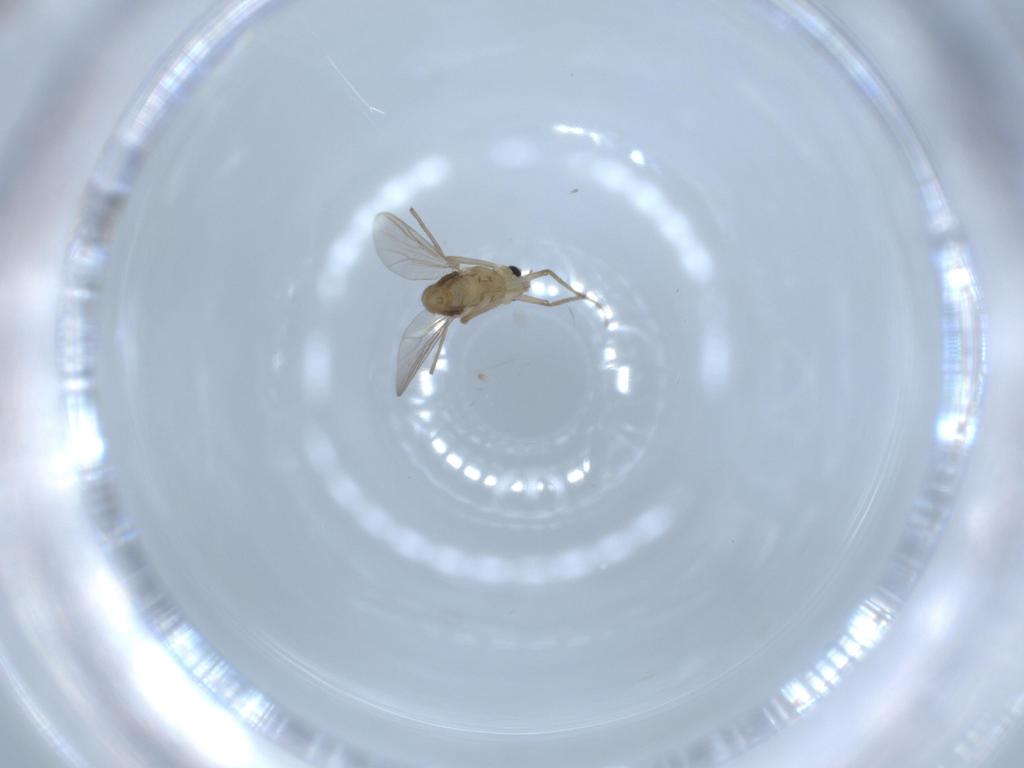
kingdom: Animalia
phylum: Arthropoda
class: Insecta
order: Diptera
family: Chironomidae
